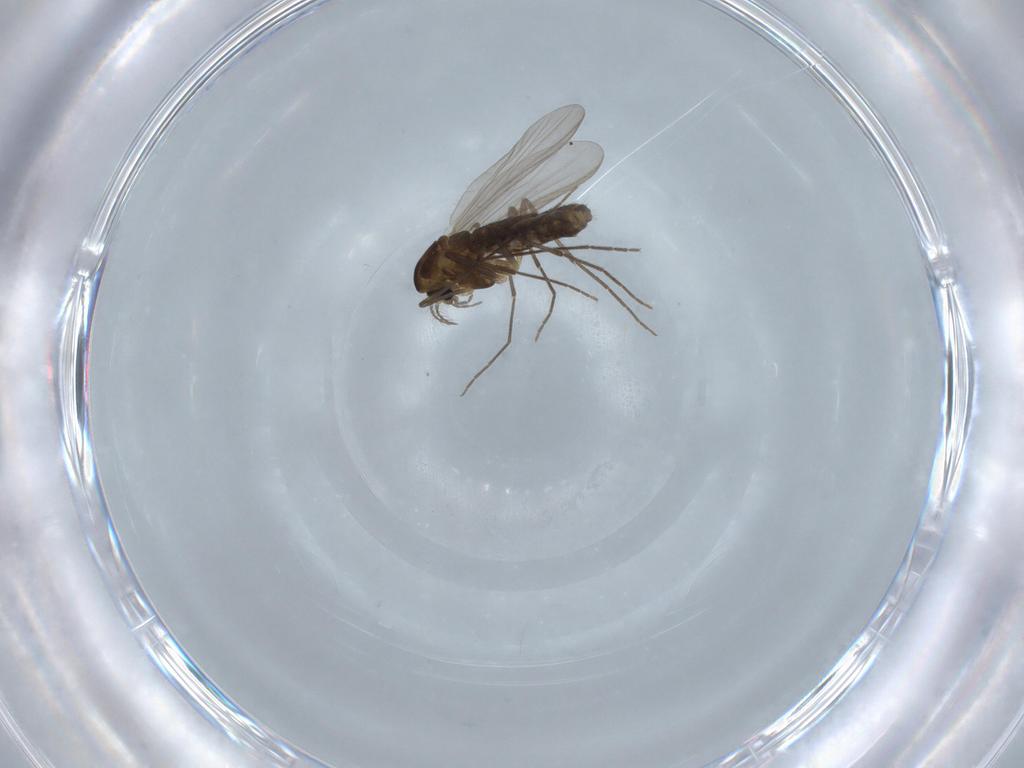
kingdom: Animalia
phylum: Arthropoda
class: Insecta
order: Diptera
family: Chironomidae
